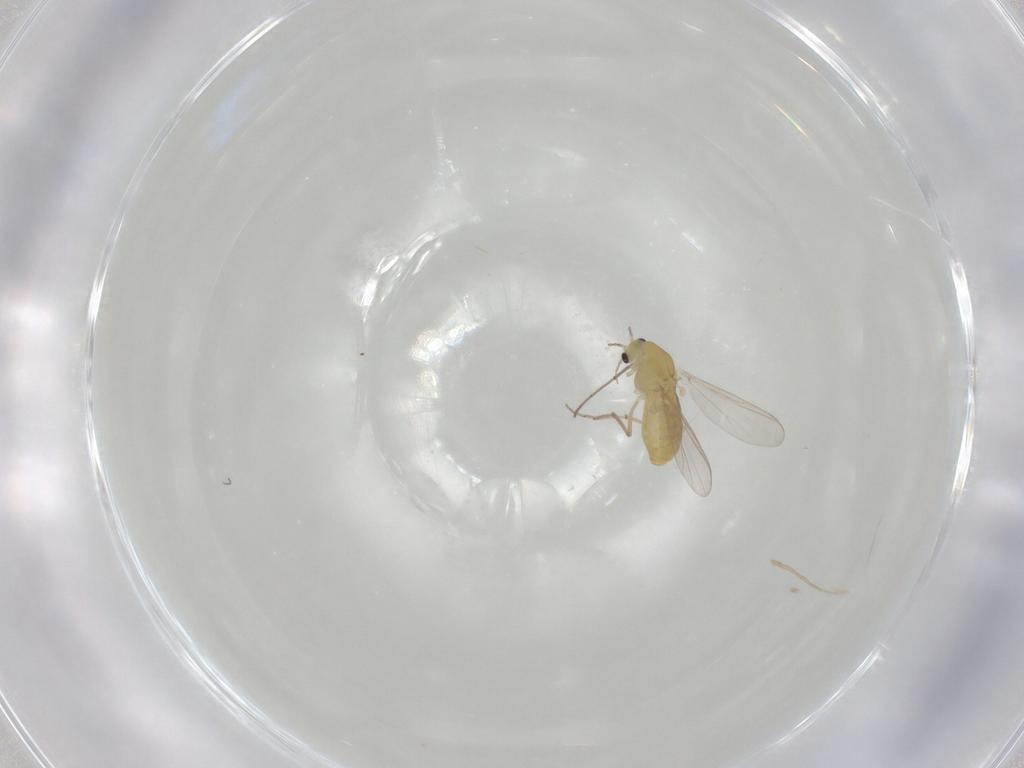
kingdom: Animalia
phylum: Arthropoda
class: Insecta
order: Diptera
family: Chironomidae
